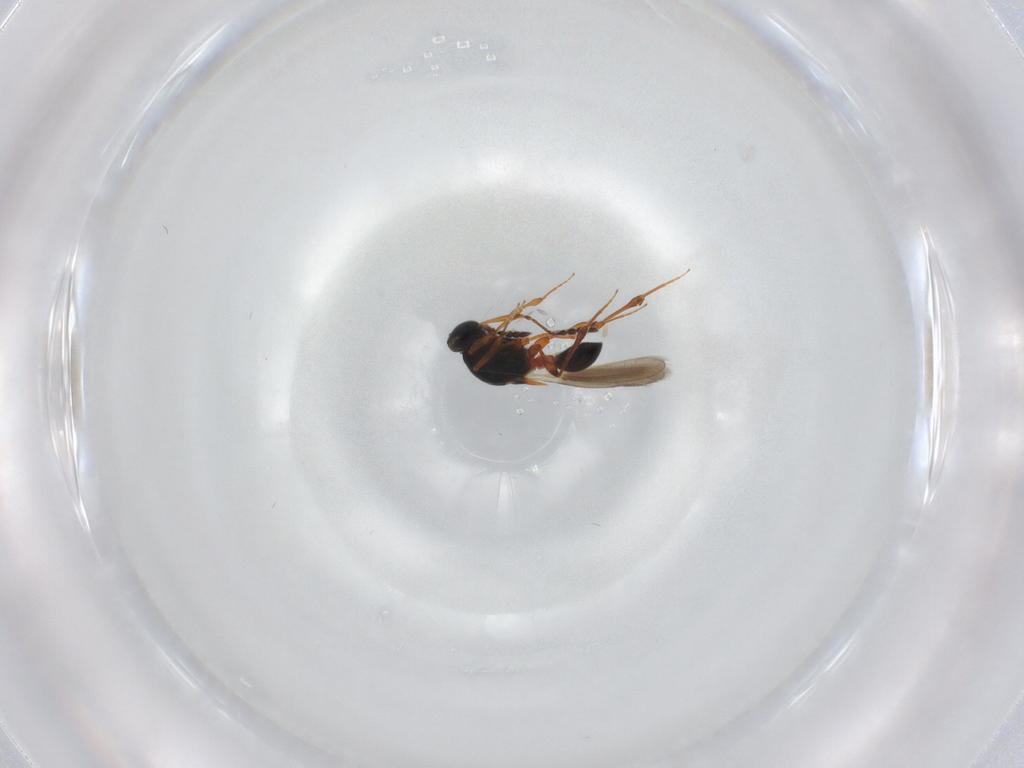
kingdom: Animalia
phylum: Arthropoda
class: Insecta
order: Hymenoptera
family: Platygastridae
